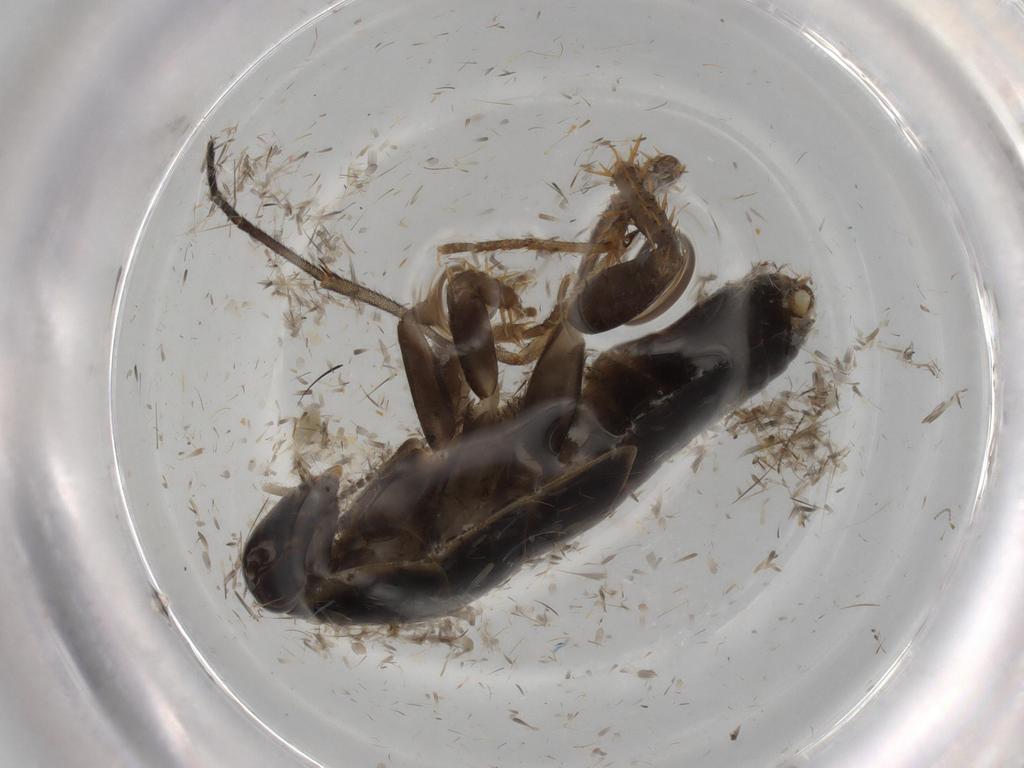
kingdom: Animalia
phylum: Arthropoda
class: Insecta
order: Blattodea
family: Ectobiidae
